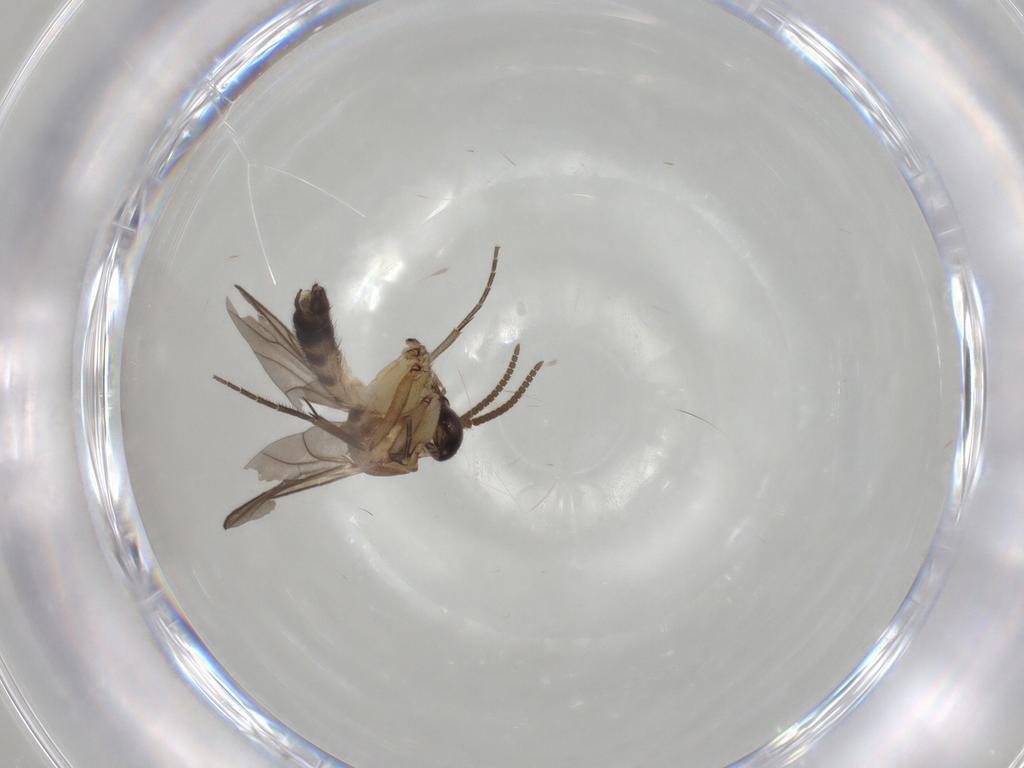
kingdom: Animalia
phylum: Arthropoda
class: Insecta
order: Diptera
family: Mycetophilidae
